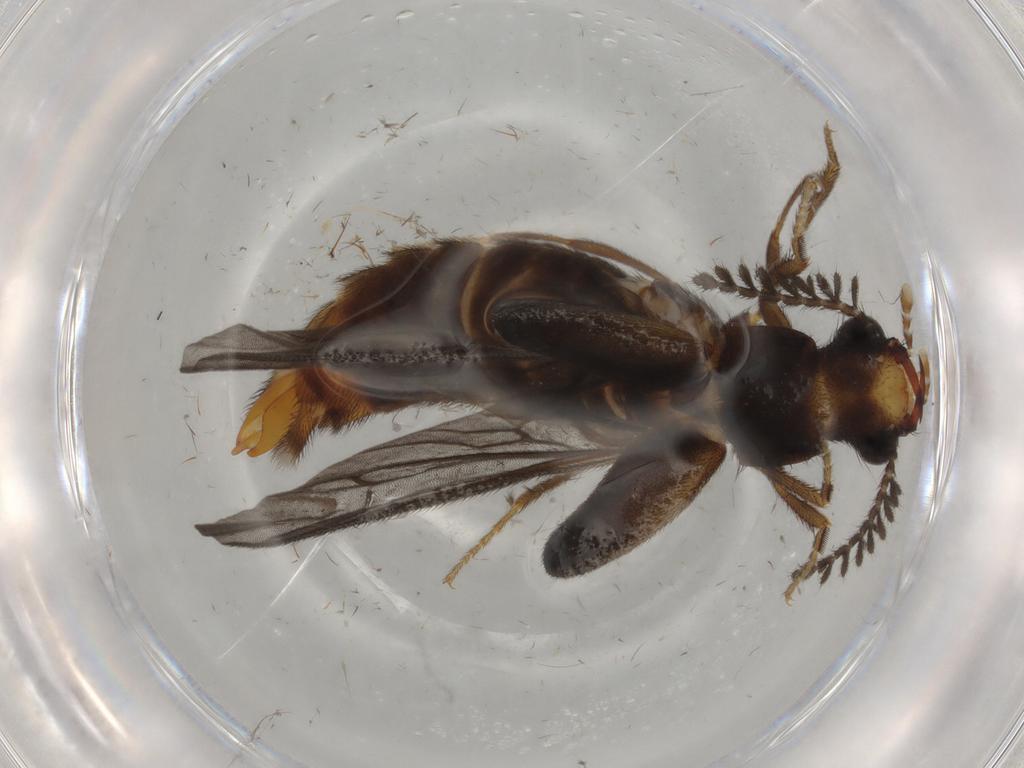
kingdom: Animalia
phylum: Arthropoda
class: Insecta
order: Coleoptera
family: Phengodidae
